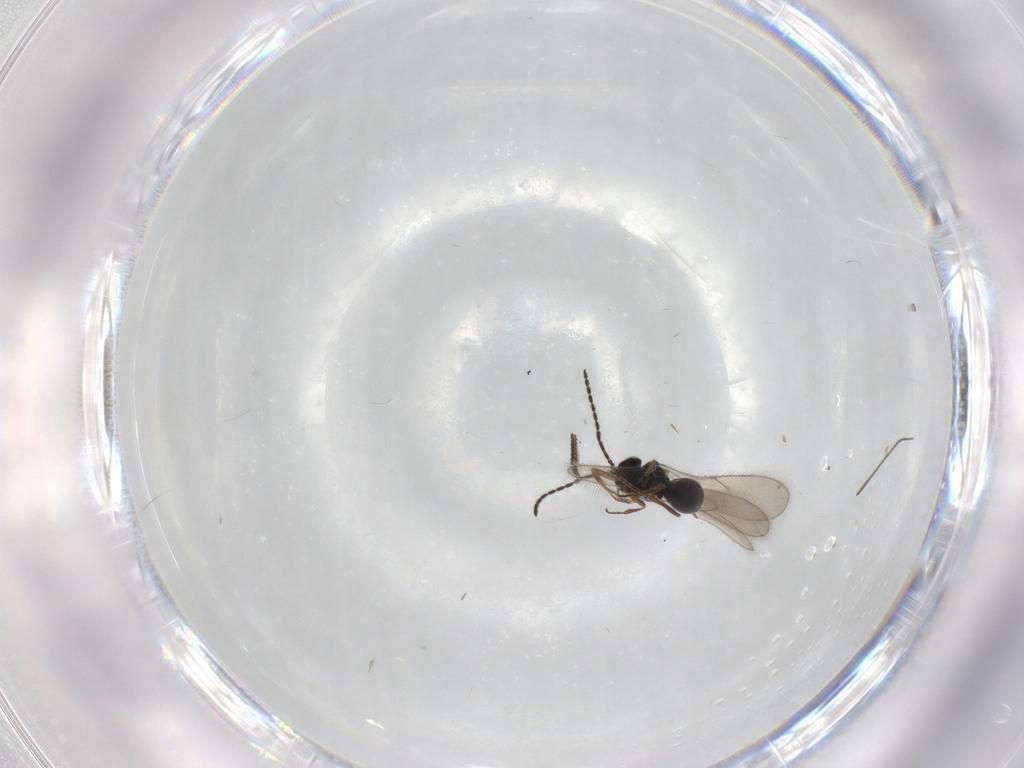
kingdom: Animalia
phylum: Arthropoda
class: Insecta
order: Hymenoptera
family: Scelionidae
